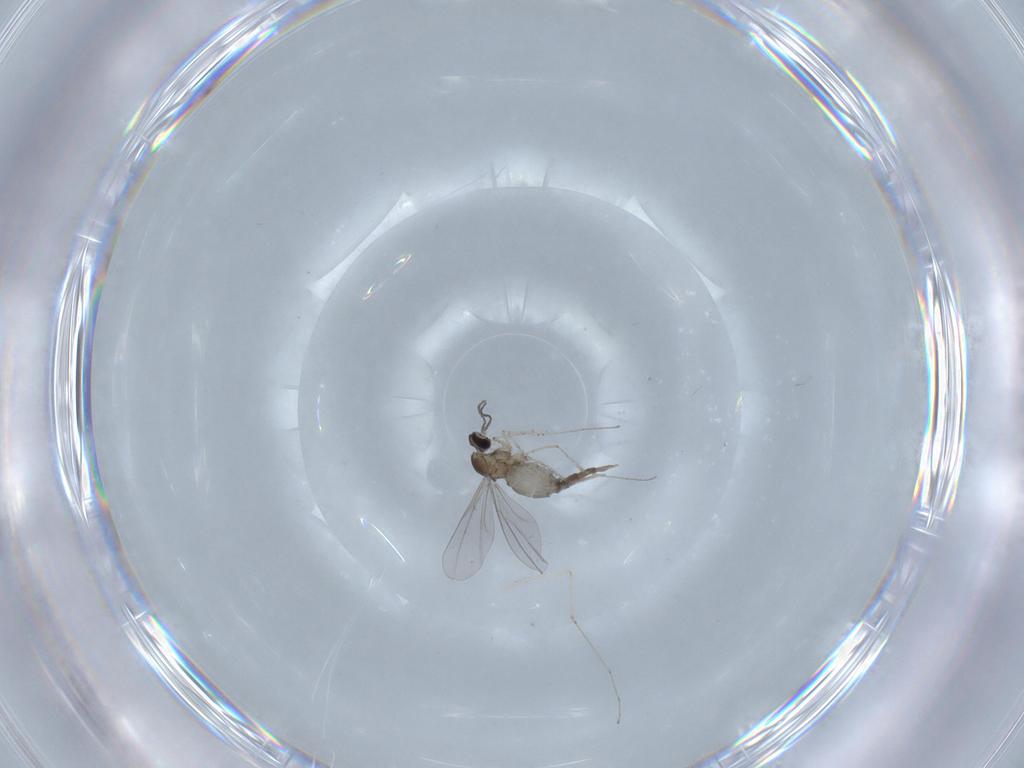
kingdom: Animalia
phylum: Arthropoda
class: Insecta
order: Diptera
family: Cecidomyiidae
